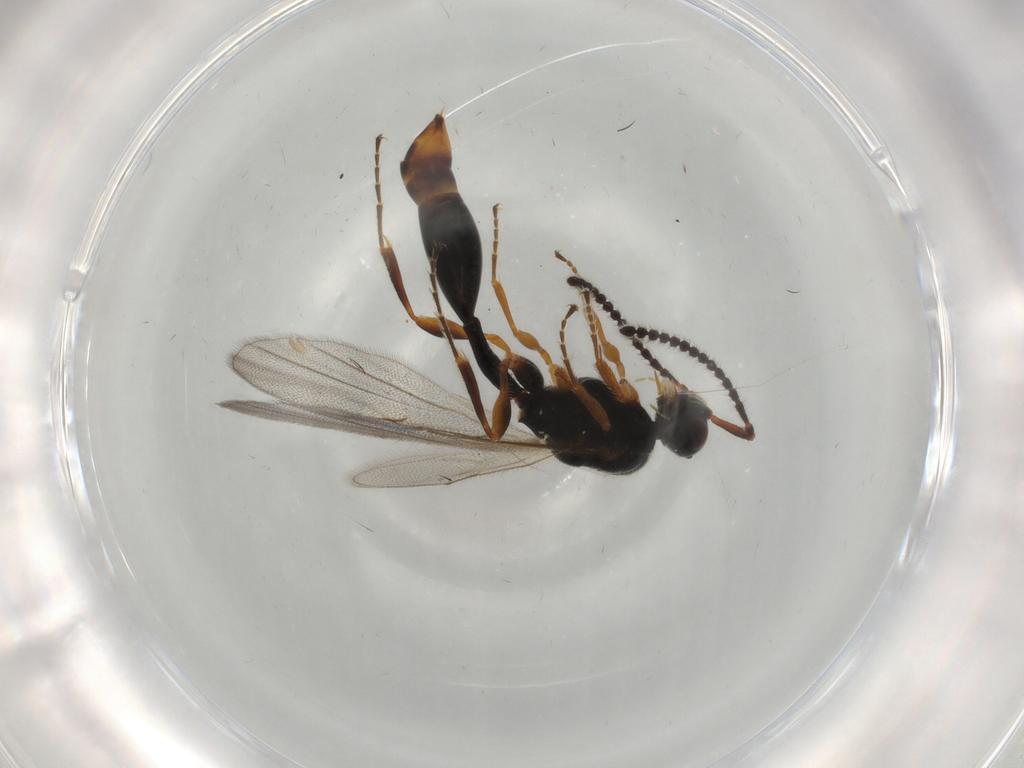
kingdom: Animalia
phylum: Arthropoda
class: Insecta
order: Hymenoptera
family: Diapriidae
